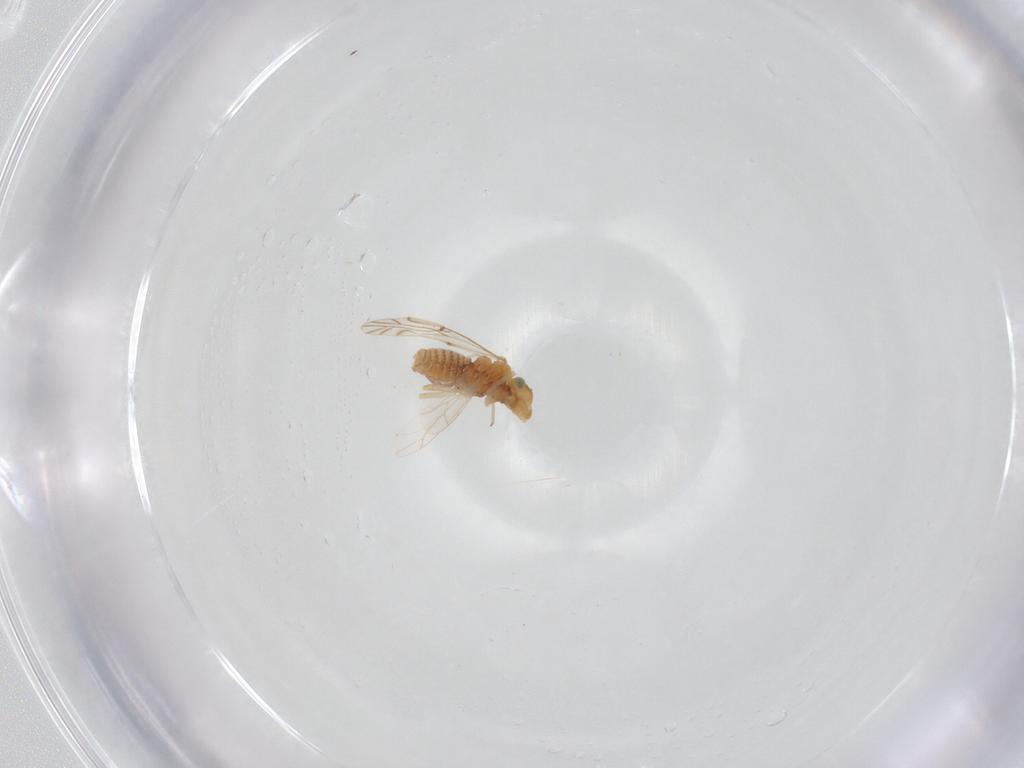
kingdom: Animalia
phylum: Arthropoda
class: Insecta
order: Psocodea
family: Lachesillidae
